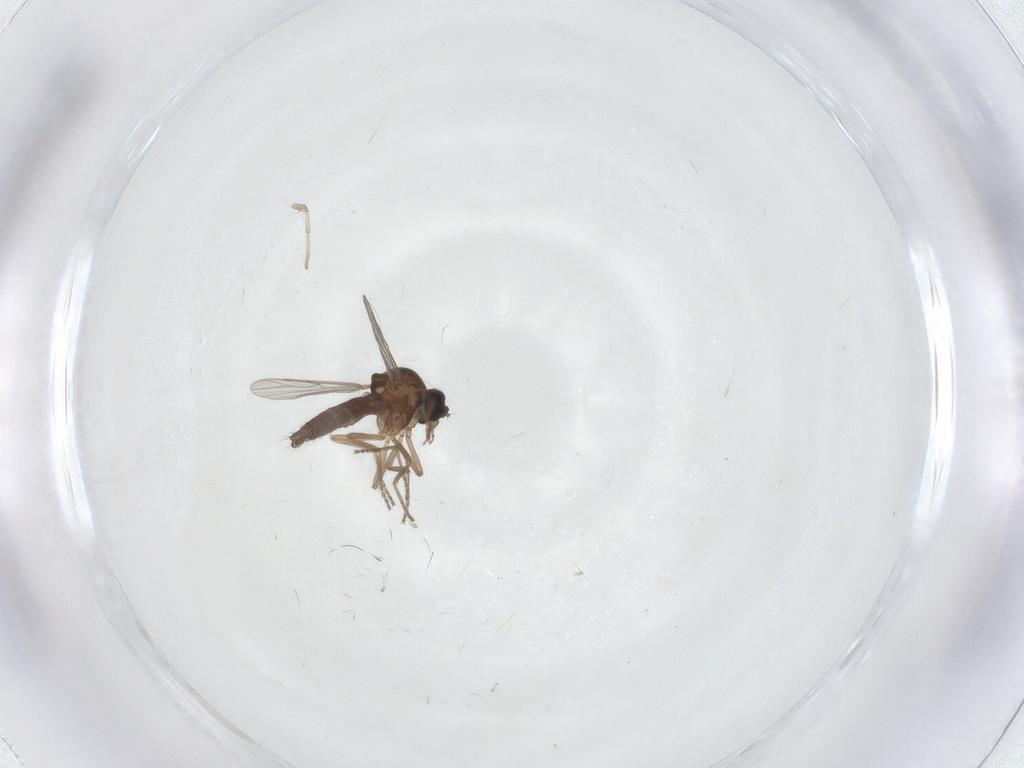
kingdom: Animalia
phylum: Arthropoda
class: Insecta
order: Diptera
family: Ceratopogonidae
